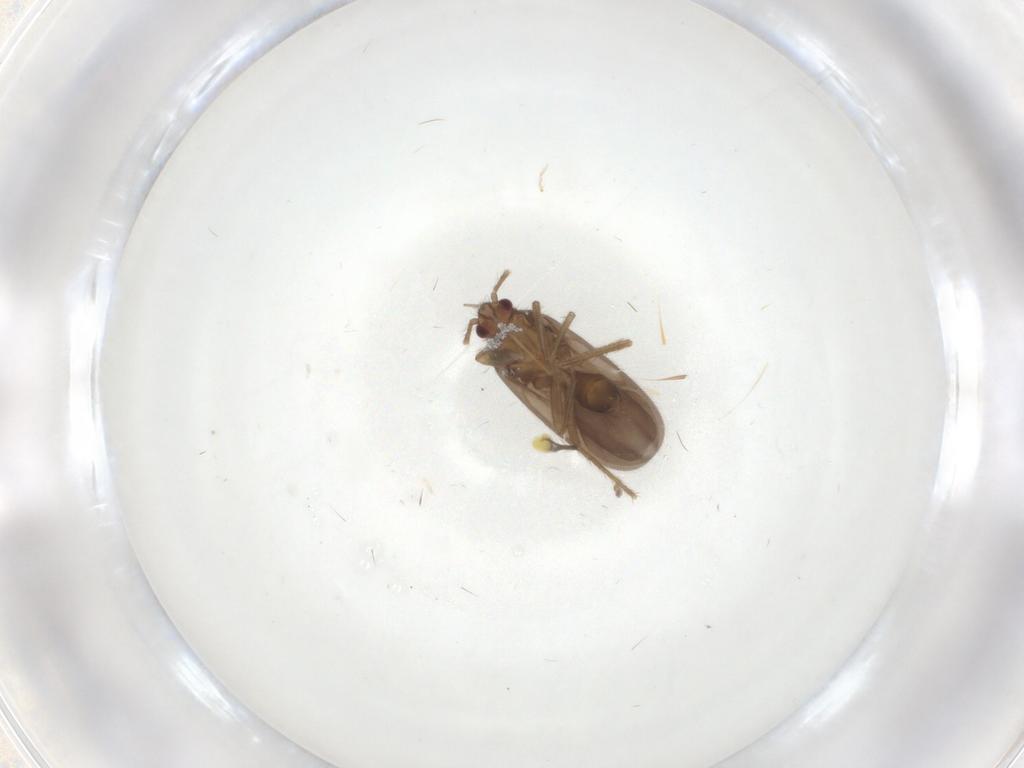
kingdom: Animalia
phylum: Arthropoda
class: Insecta
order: Hemiptera
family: Ceratocombidae
